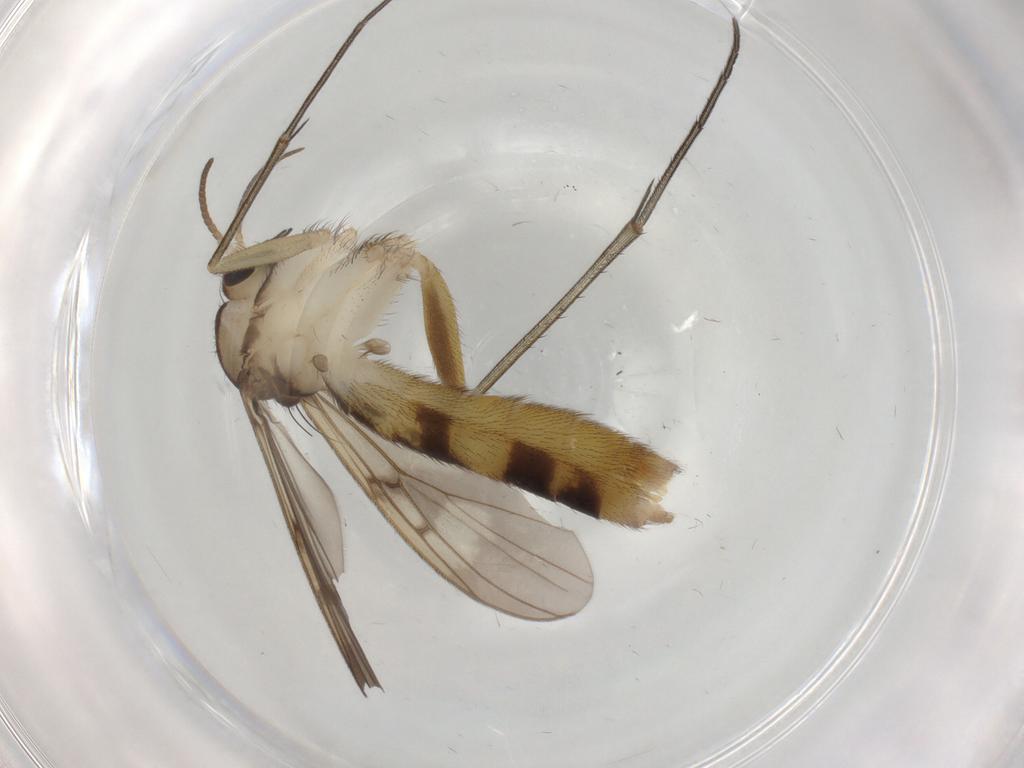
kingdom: Animalia
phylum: Arthropoda
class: Insecta
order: Diptera
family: Mycetophilidae
